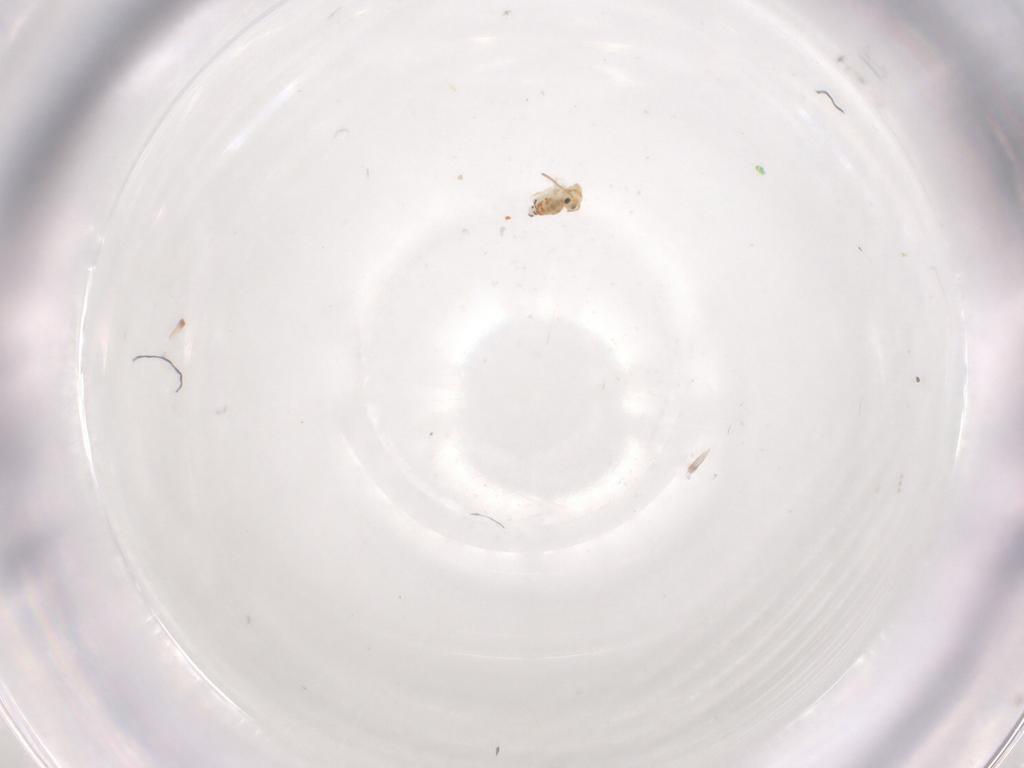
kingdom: Animalia
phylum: Arthropoda
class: Collembola
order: Symphypleona
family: Bourletiellidae
